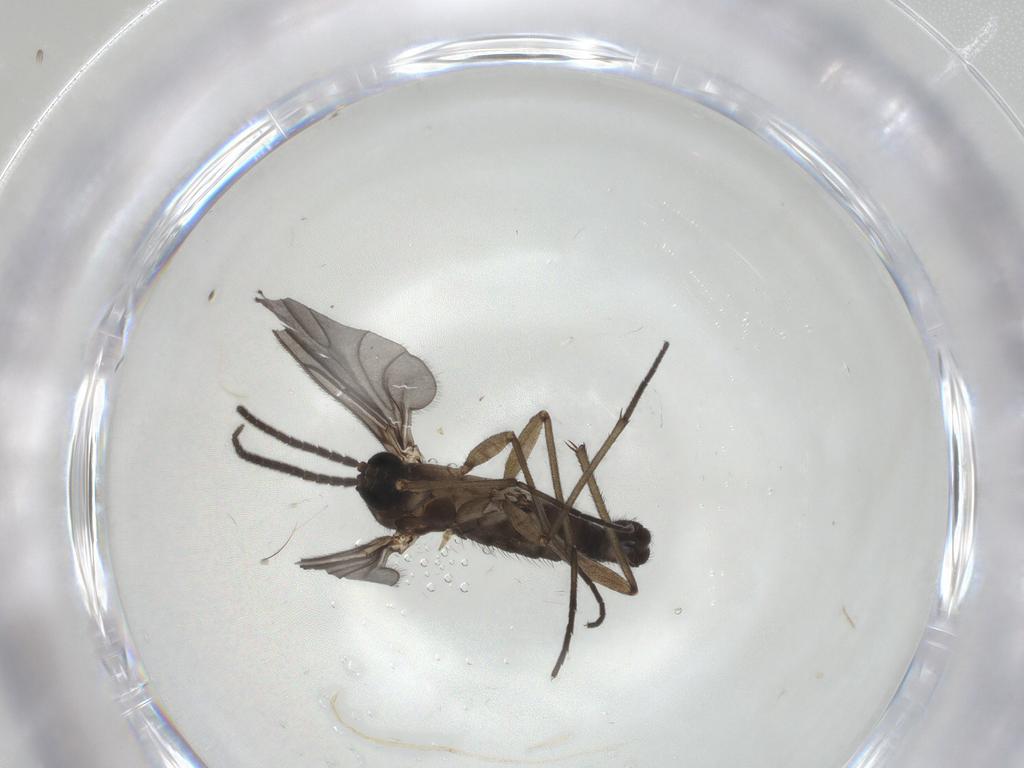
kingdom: Animalia
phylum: Arthropoda
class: Insecta
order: Diptera
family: Sciaridae
